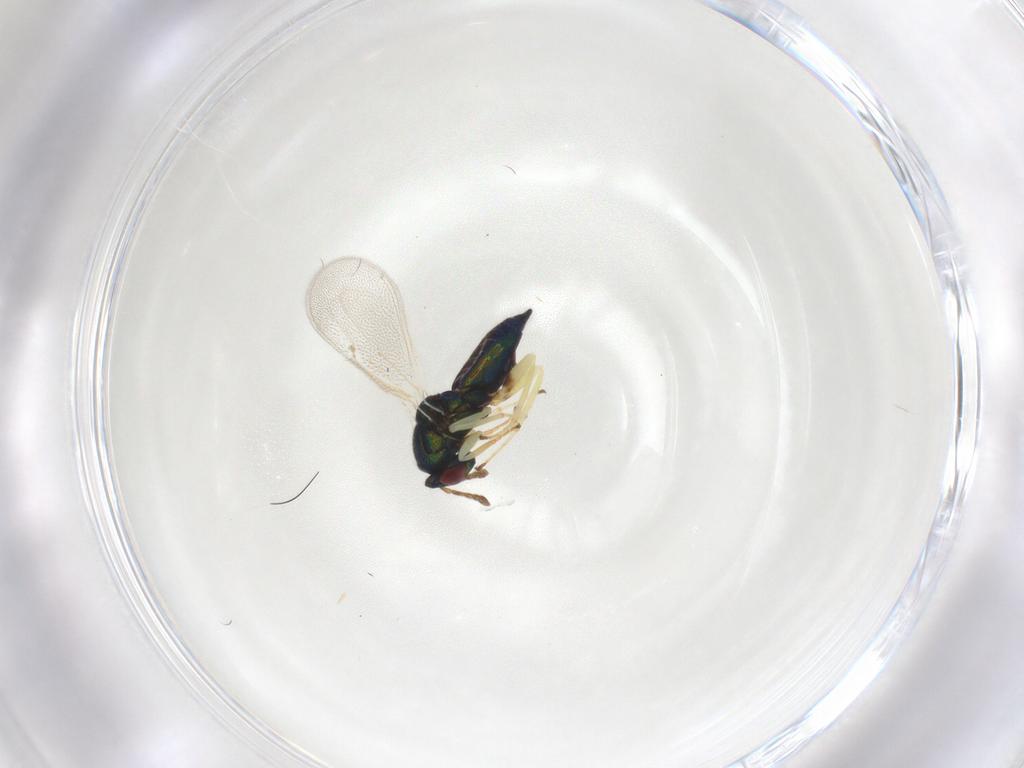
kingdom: Animalia
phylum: Arthropoda
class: Insecta
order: Hymenoptera
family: Eulophidae
